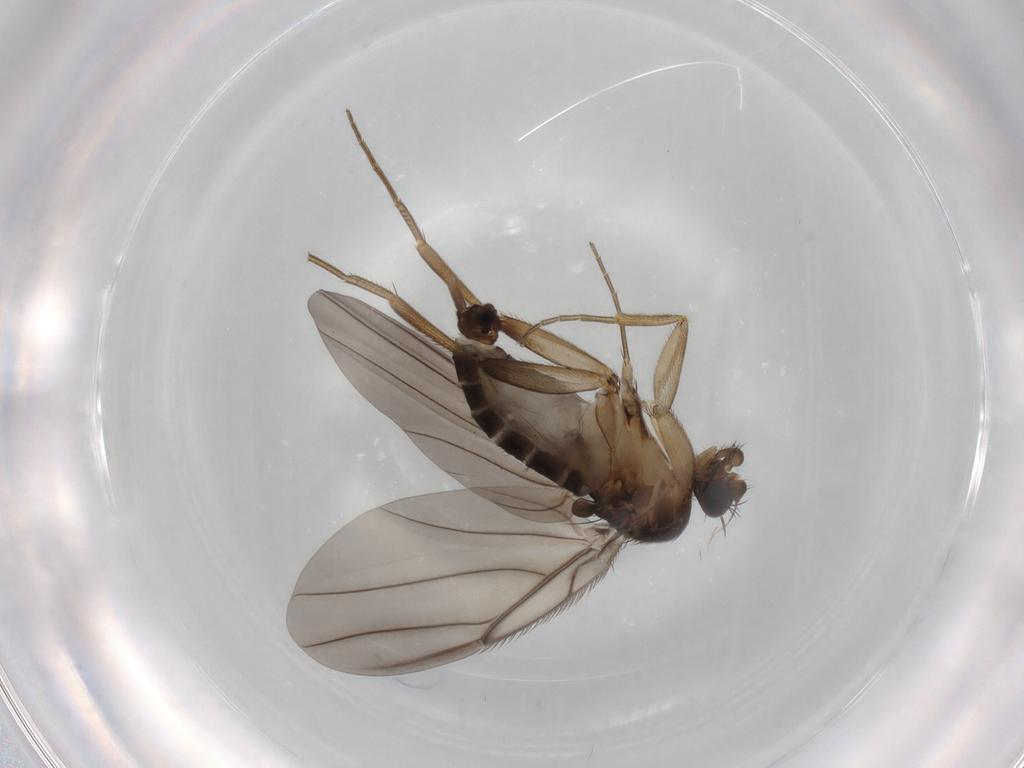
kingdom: Animalia
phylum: Arthropoda
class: Insecta
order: Diptera
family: Phoridae
